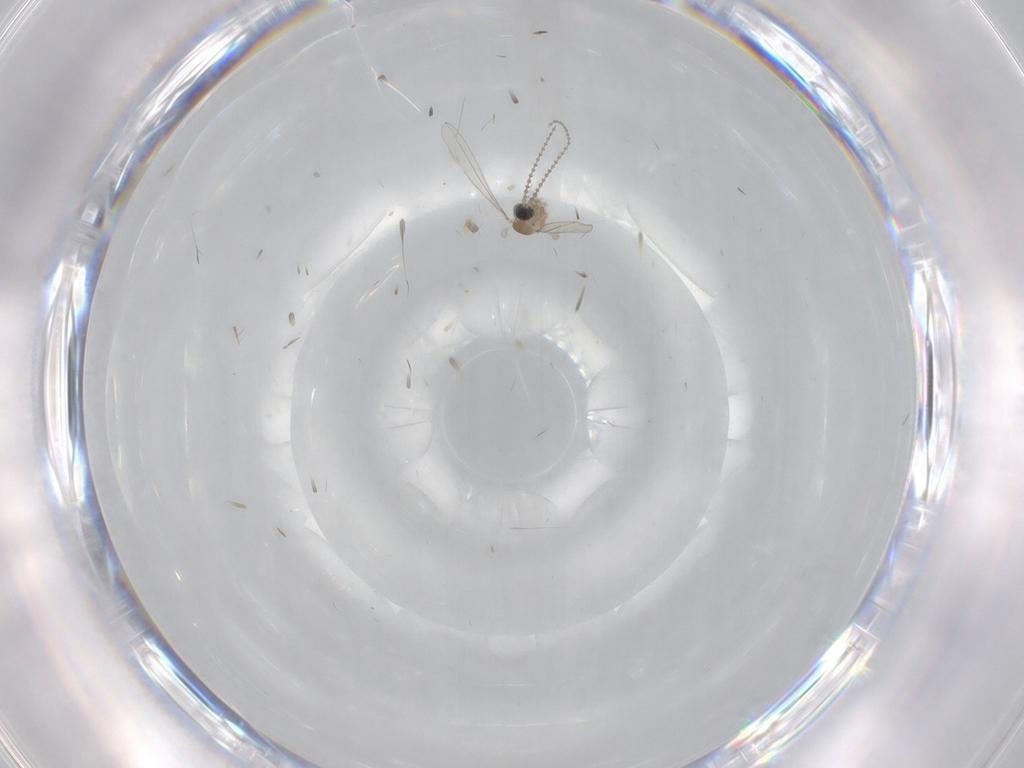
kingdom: Animalia
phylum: Arthropoda
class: Insecta
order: Diptera
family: Cecidomyiidae
